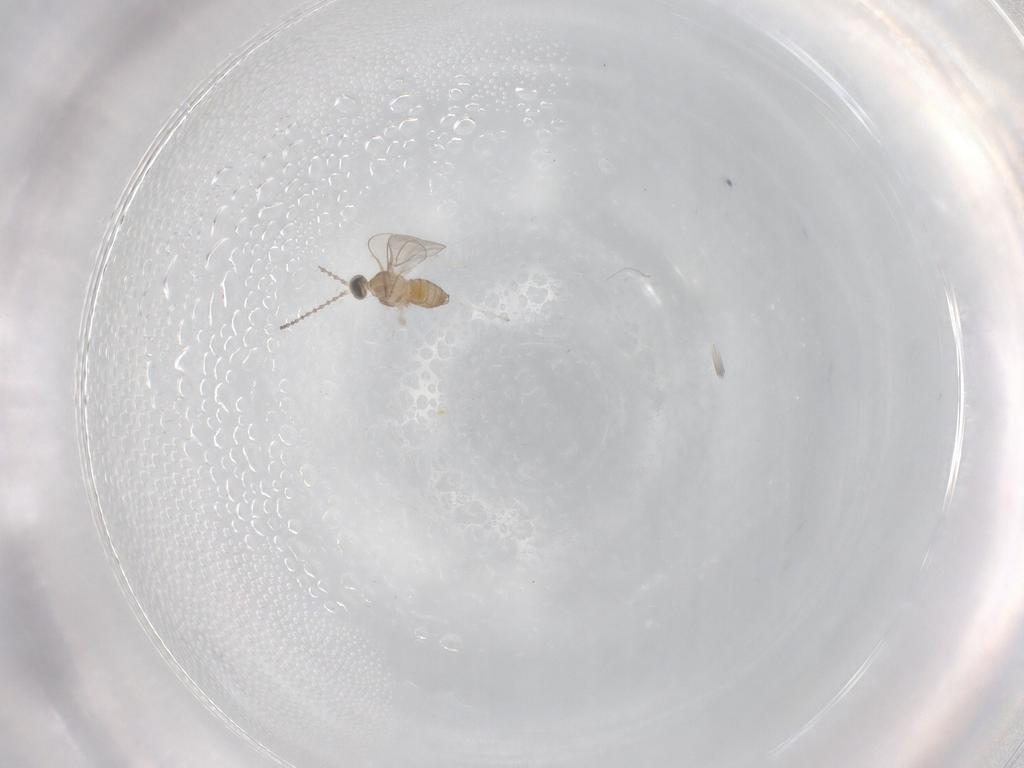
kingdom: Animalia
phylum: Arthropoda
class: Insecta
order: Diptera
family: Cecidomyiidae
